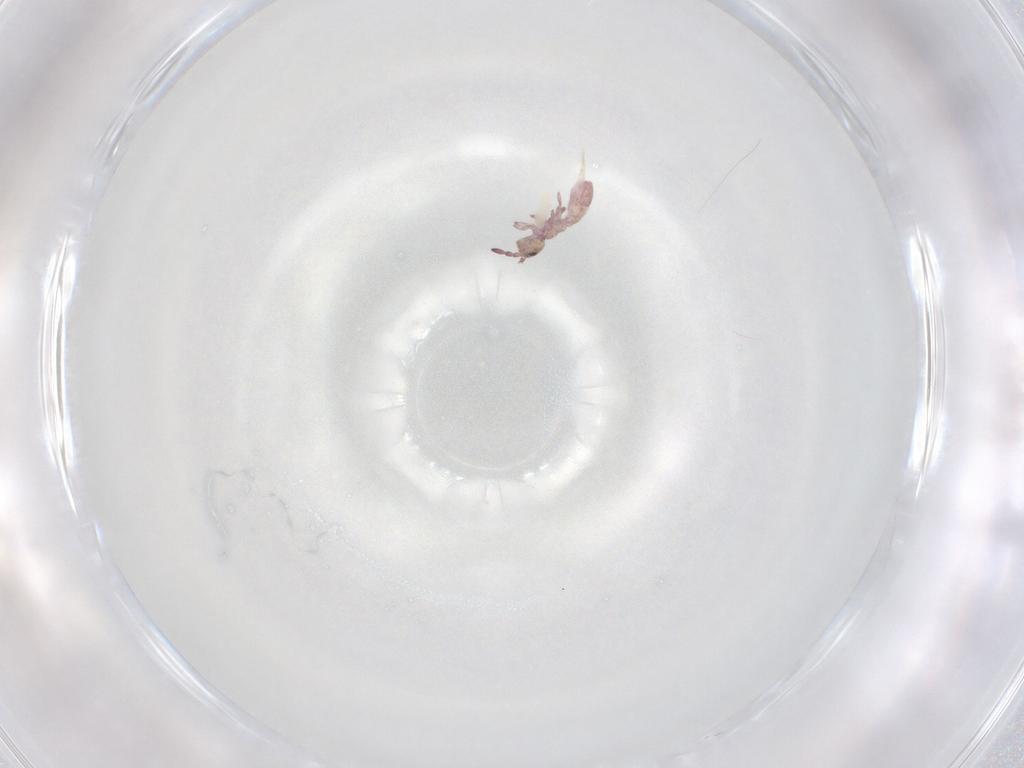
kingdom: Animalia
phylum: Arthropoda
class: Collembola
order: Entomobryomorpha
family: Isotomidae
